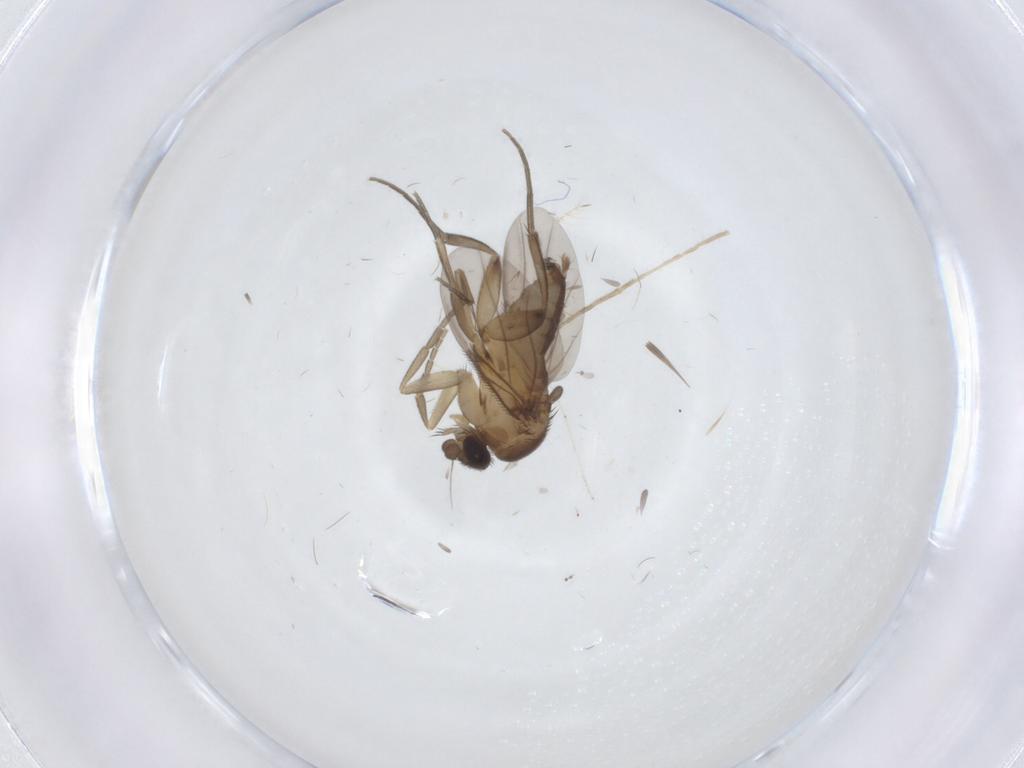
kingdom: Animalia
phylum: Arthropoda
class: Insecta
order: Diptera
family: Phoridae
